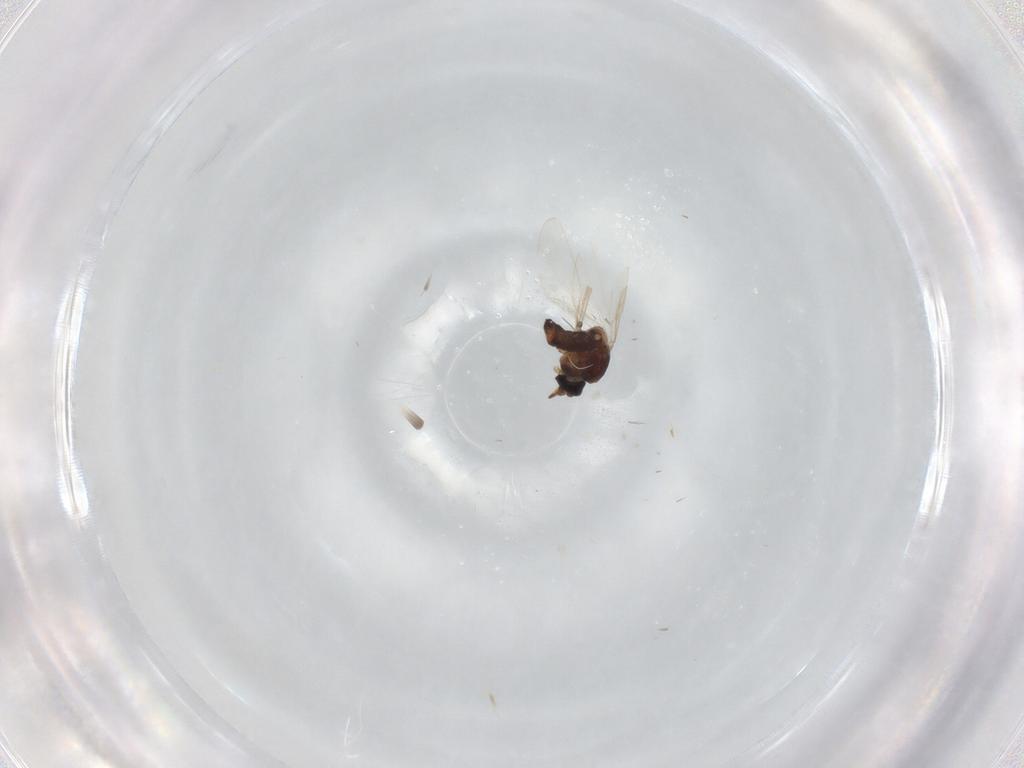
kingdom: Animalia
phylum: Arthropoda
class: Insecta
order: Diptera
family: Ceratopogonidae
